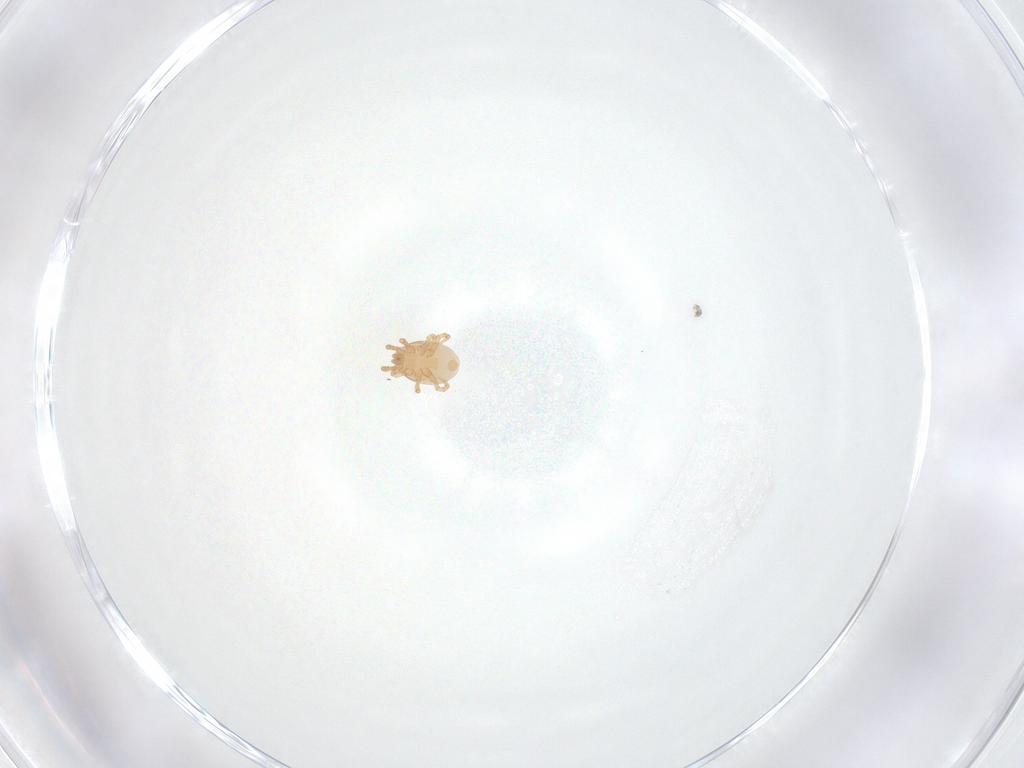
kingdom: Animalia
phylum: Arthropoda
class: Arachnida
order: Mesostigmata
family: Melicharidae
